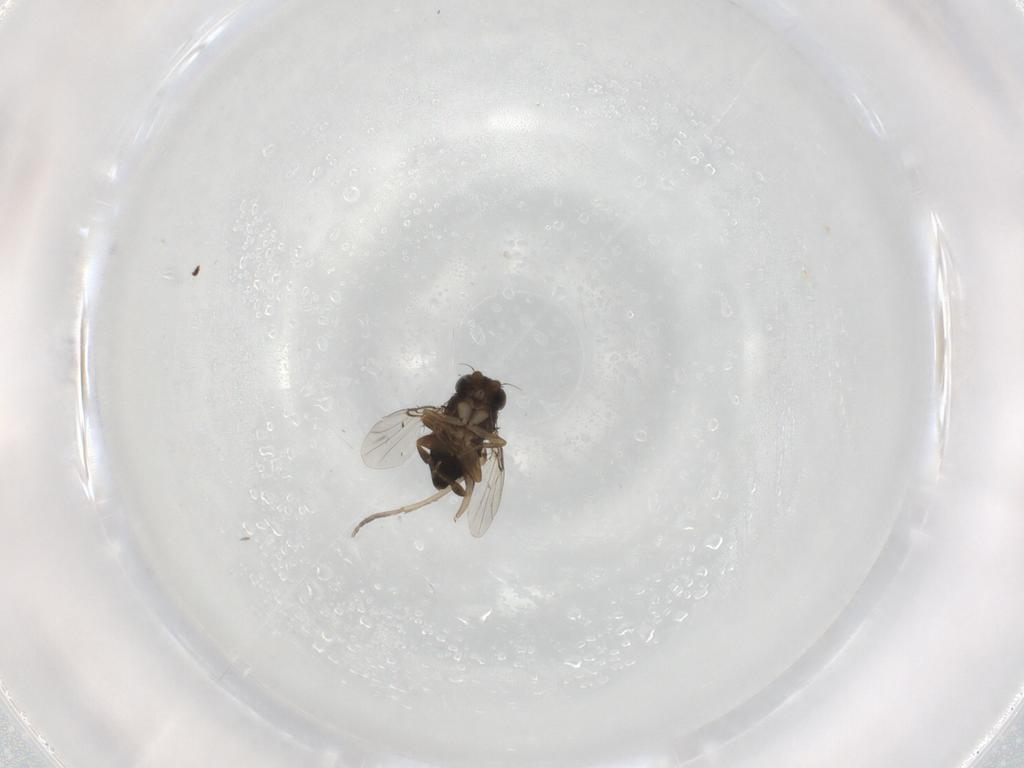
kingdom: Animalia
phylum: Arthropoda
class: Insecta
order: Diptera
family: Phoridae
